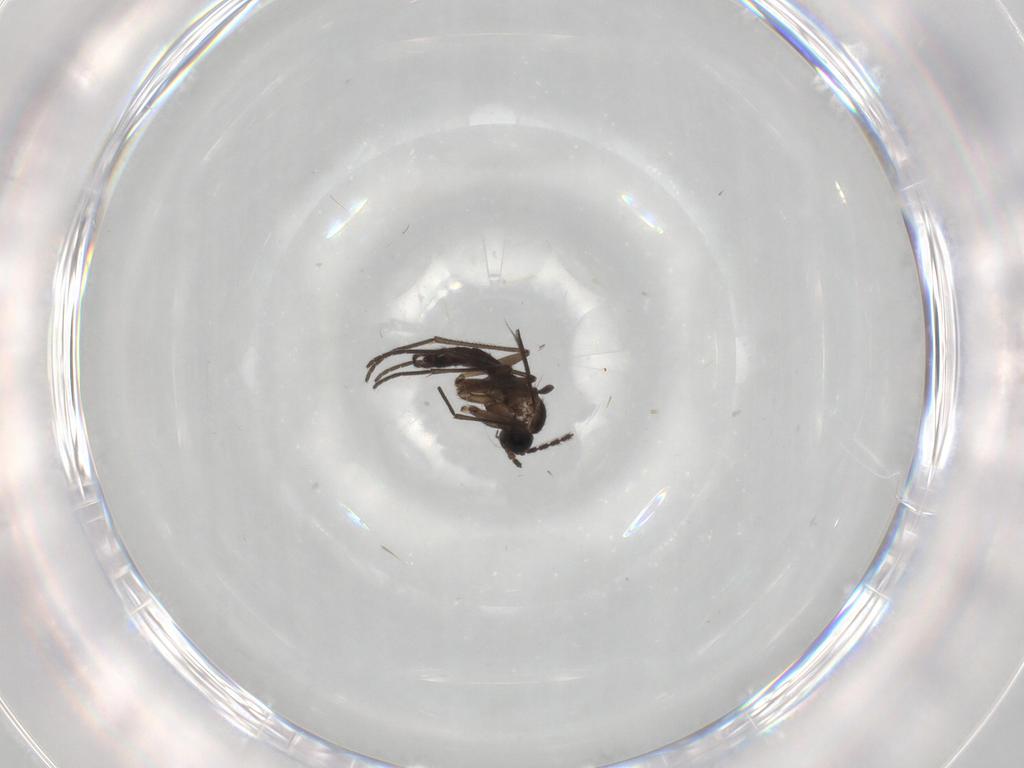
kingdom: Animalia
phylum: Arthropoda
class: Insecta
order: Diptera
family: Sciaridae
